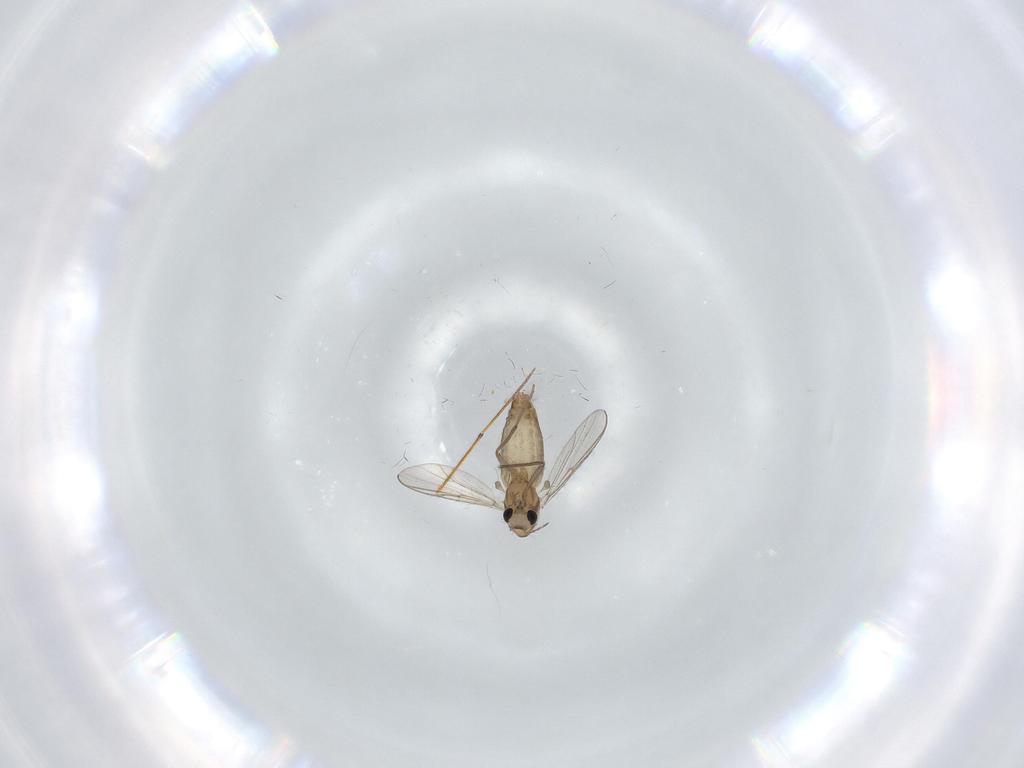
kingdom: Animalia
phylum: Arthropoda
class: Insecta
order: Diptera
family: Chironomidae
